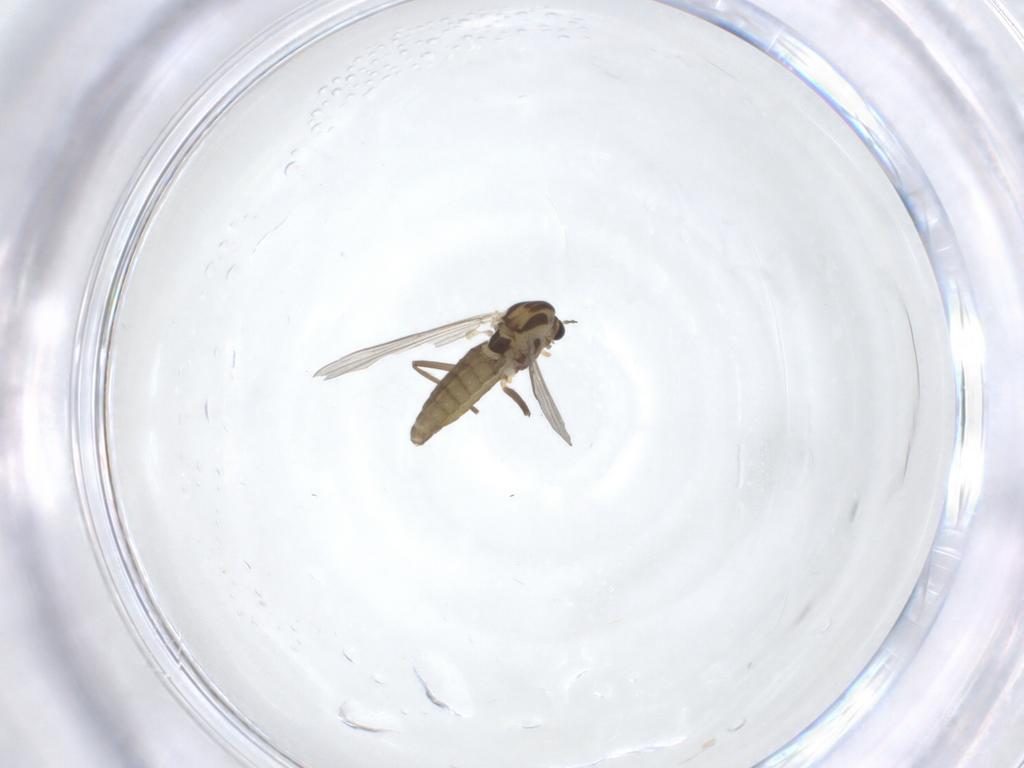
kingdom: Animalia
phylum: Arthropoda
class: Insecta
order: Diptera
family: Chironomidae
